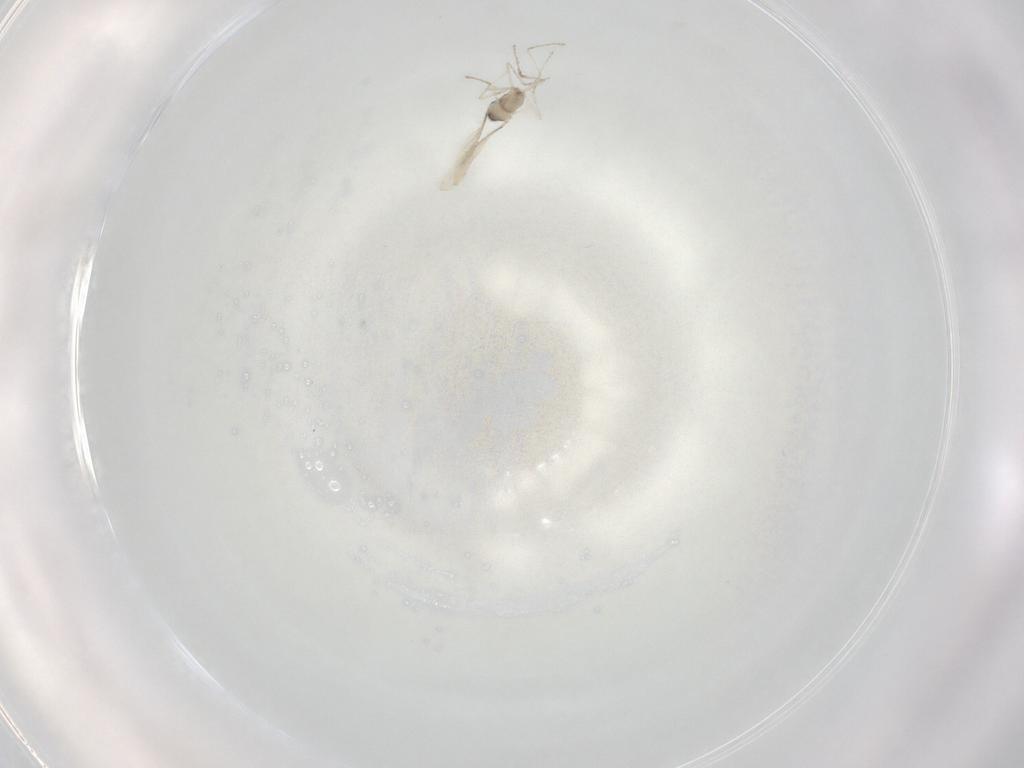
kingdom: Animalia
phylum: Arthropoda
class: Insecta
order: Diptera
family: Cecidomyiidae
